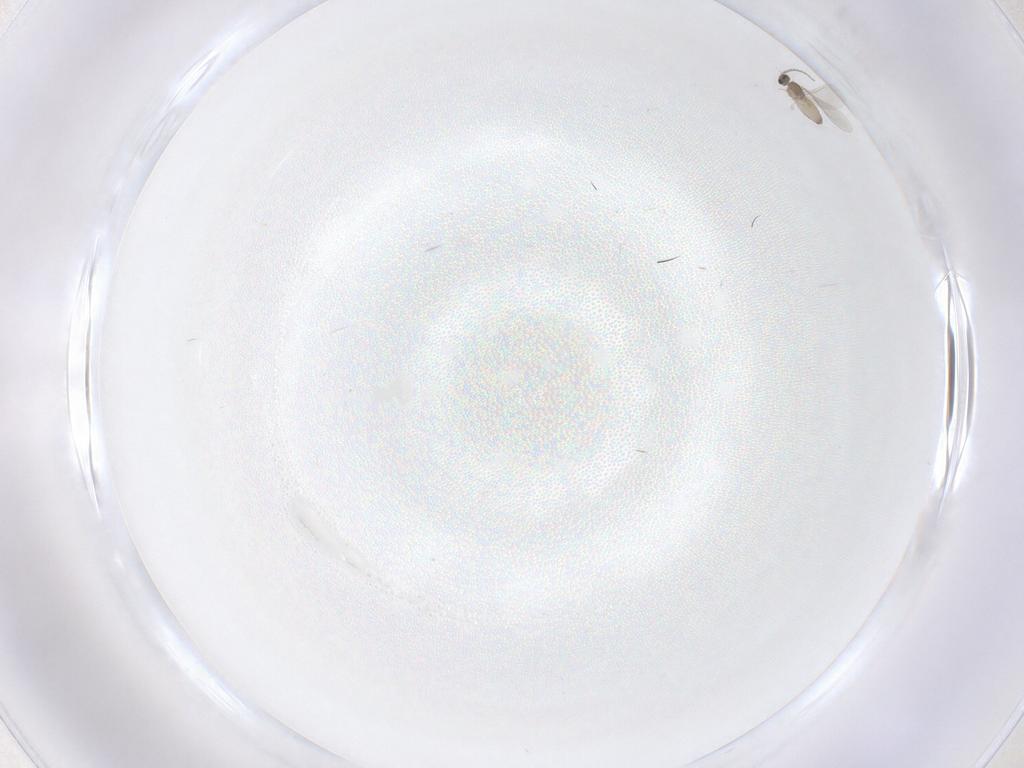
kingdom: Animalia
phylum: Arthropoda
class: Insecta
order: Diptera
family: Cecidomyiidae
